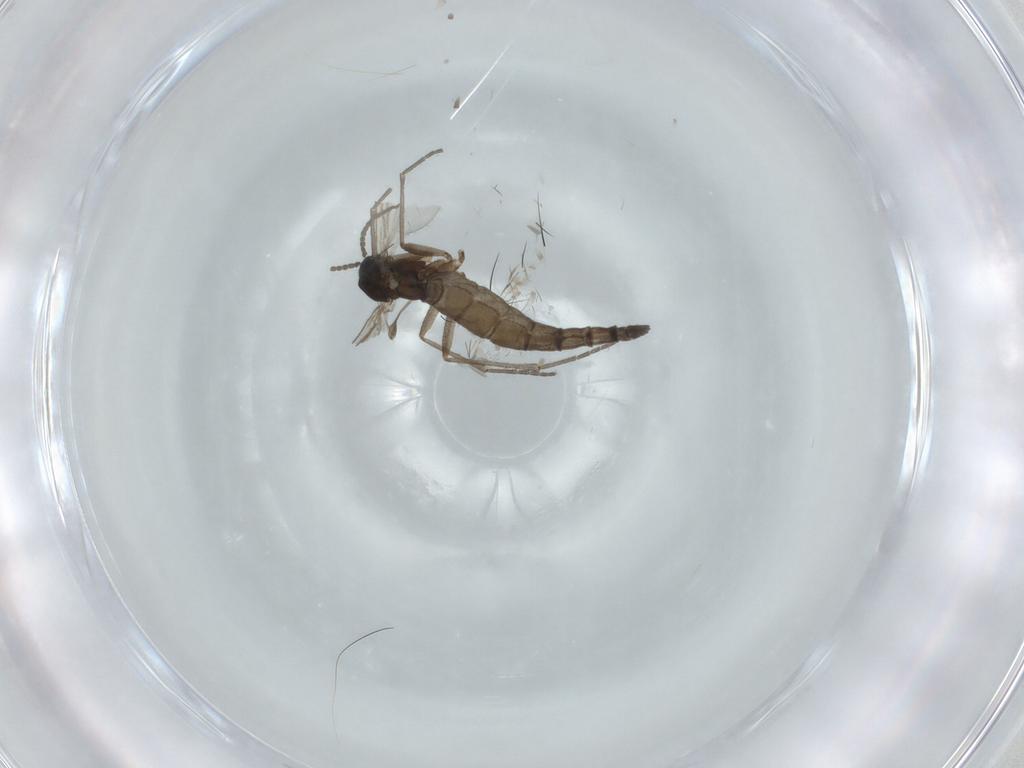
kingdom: Animalia
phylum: Arthropoda
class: Insecta
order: Diptera
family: Sciaridae
